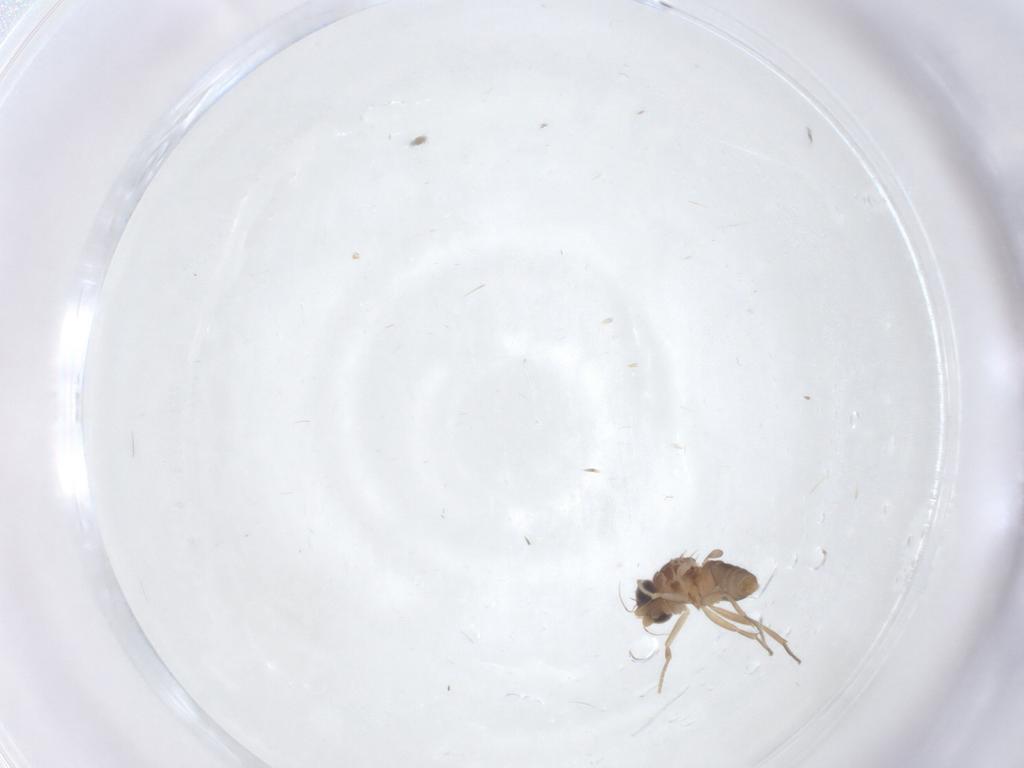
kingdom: Animalia
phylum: Arthropoda
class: Insecta
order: Diptera
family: Phoridae
